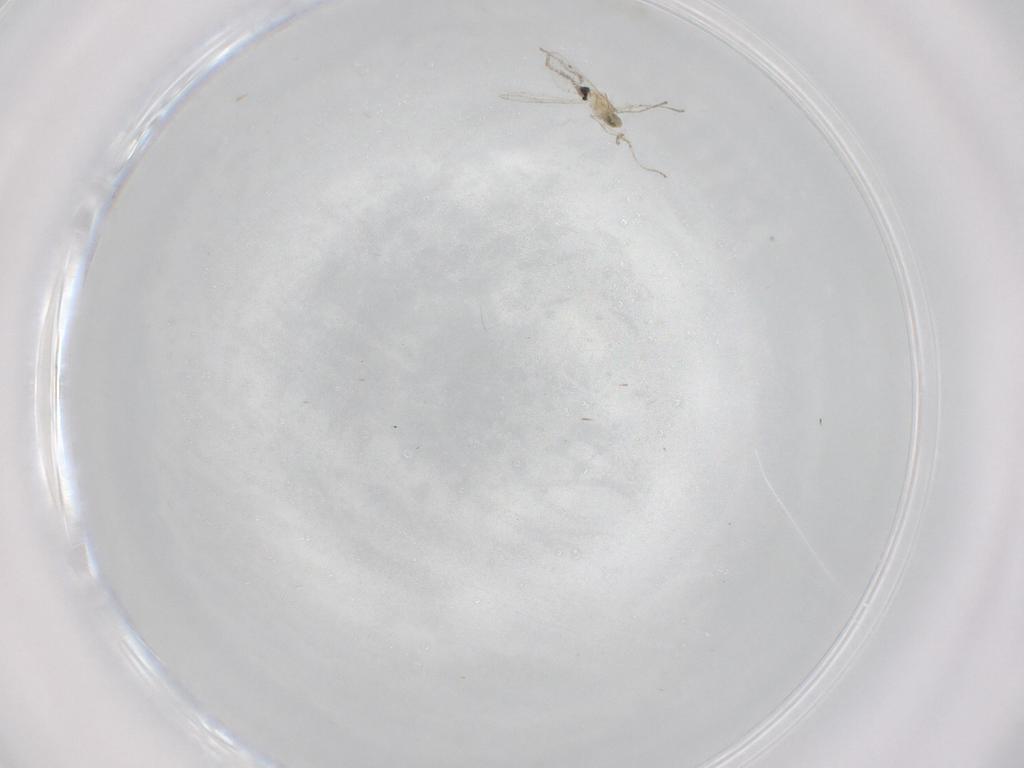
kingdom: Animalia
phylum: Arthropoda
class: Insecta
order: Diptera
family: Cecidomyiidae
